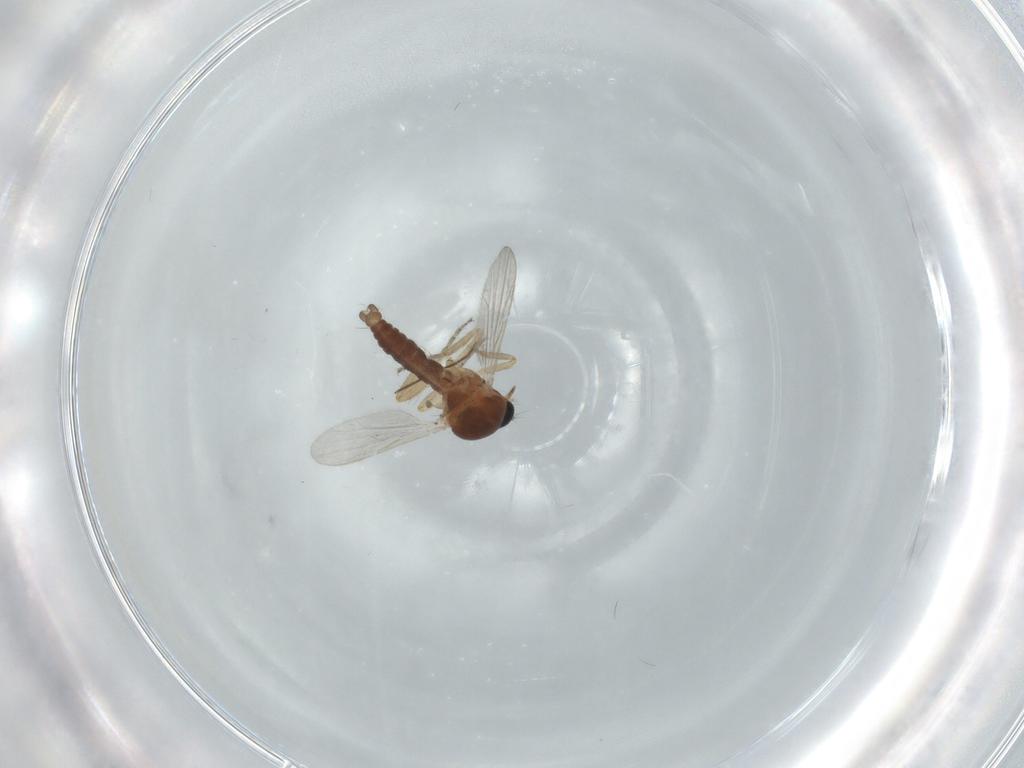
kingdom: Animalia
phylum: Arthropoda
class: Insecta
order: Diptera
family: Ceratopogonidae
